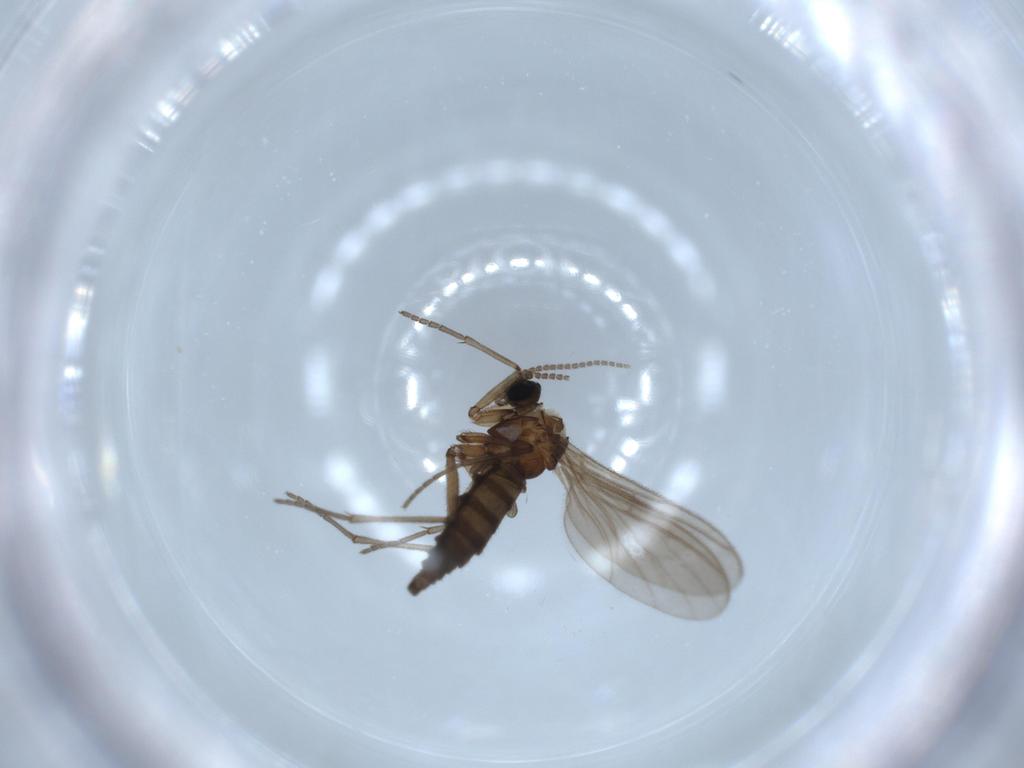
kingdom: Animalia
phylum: Arthropoda
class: Insecta
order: Diptera
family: Sciaridae
